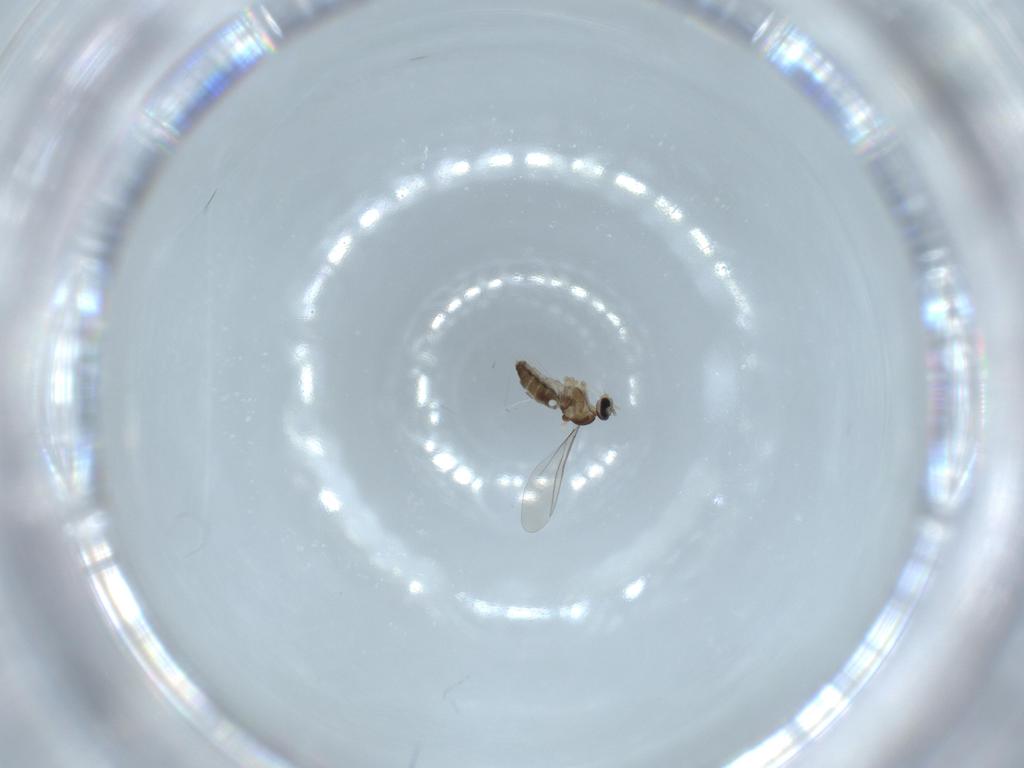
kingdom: Animalia
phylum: Arthropoda
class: Insecta
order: Diptera
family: Cecidomyiidae
